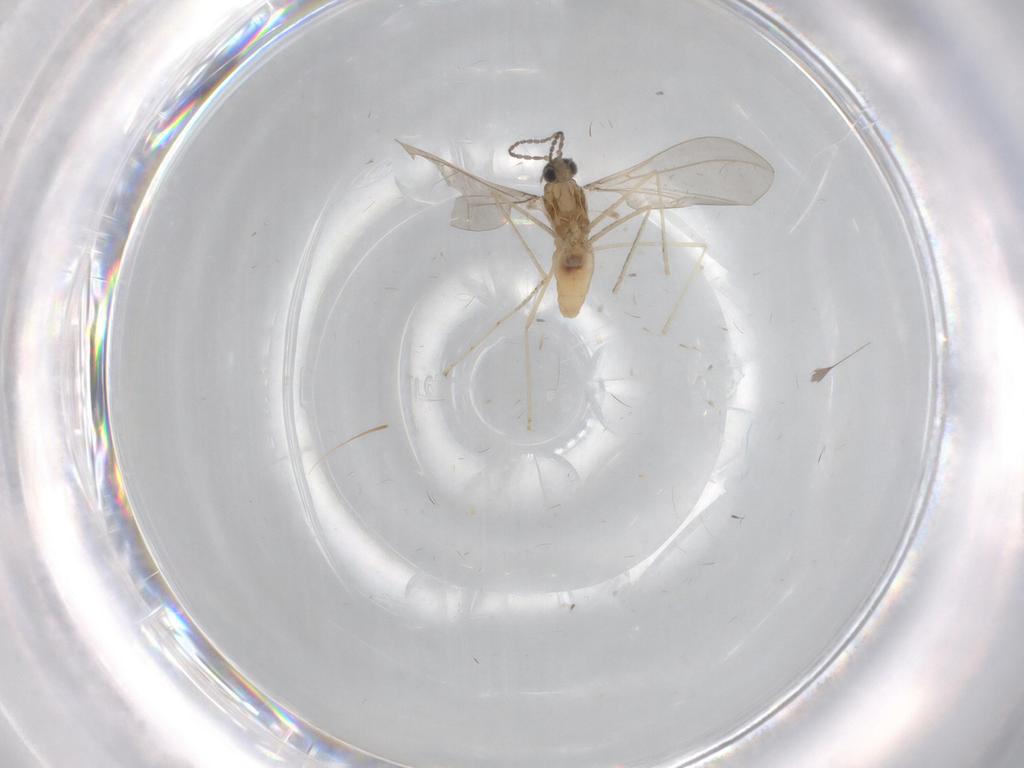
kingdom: Animalia
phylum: Arthropoda
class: Insecta
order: Diptera
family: Cecidomyiidae
